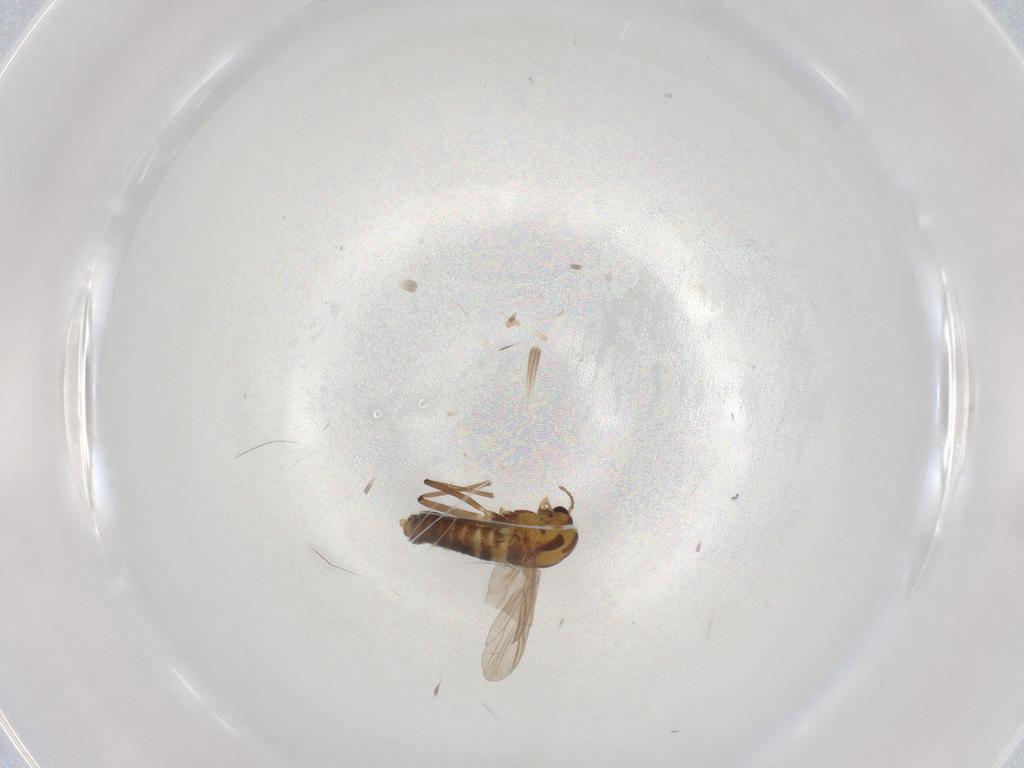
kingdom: Animalia
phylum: Arthropoda
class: Insecta
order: Diptera
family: Chironomidae
